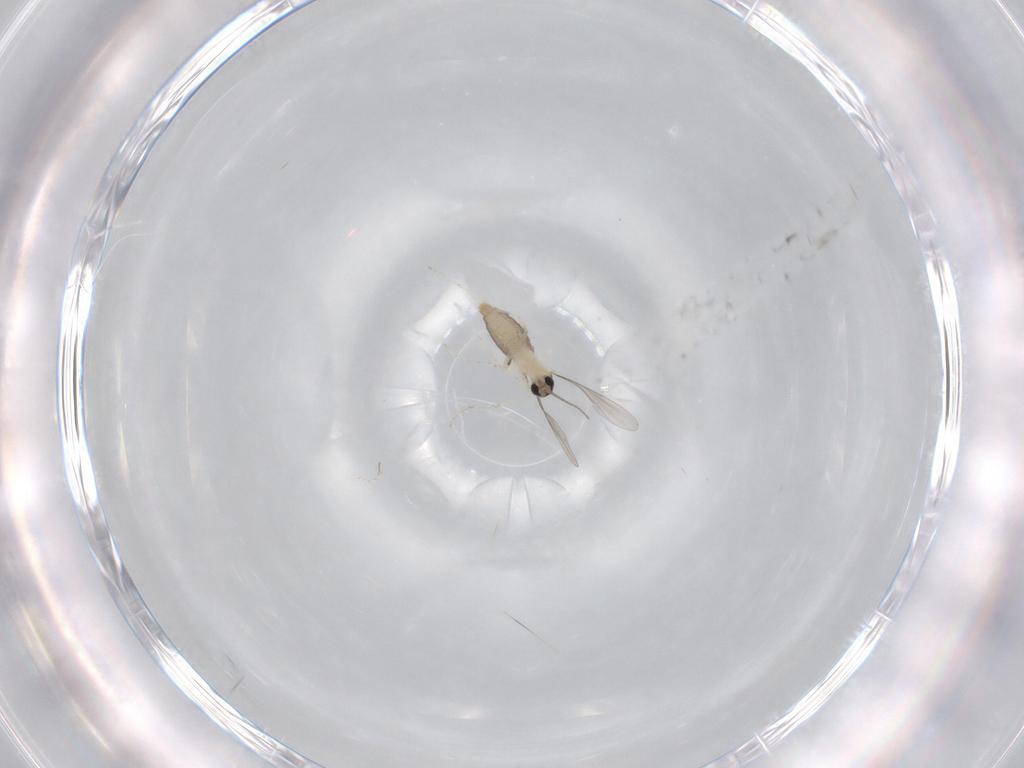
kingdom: Animalia
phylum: Arthropoda
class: Insecta
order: Diptera
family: Cecidomyiidae
